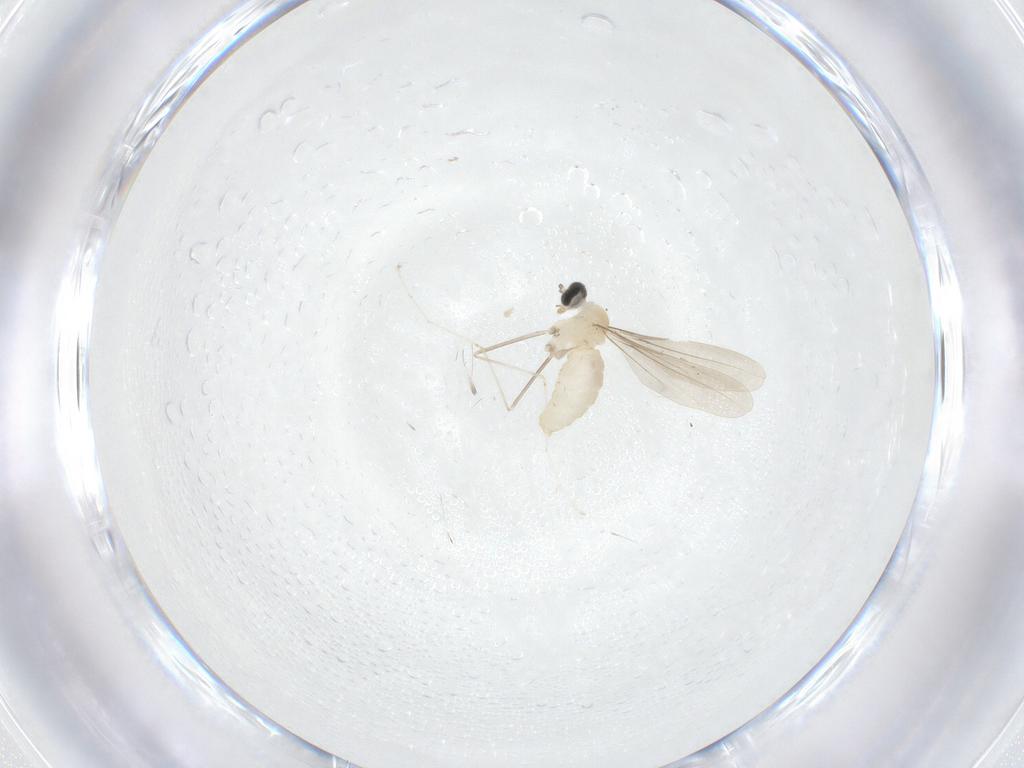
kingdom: Animalia
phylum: Arthropoda
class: Insecta
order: Diptera
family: Cecidomyiidae
